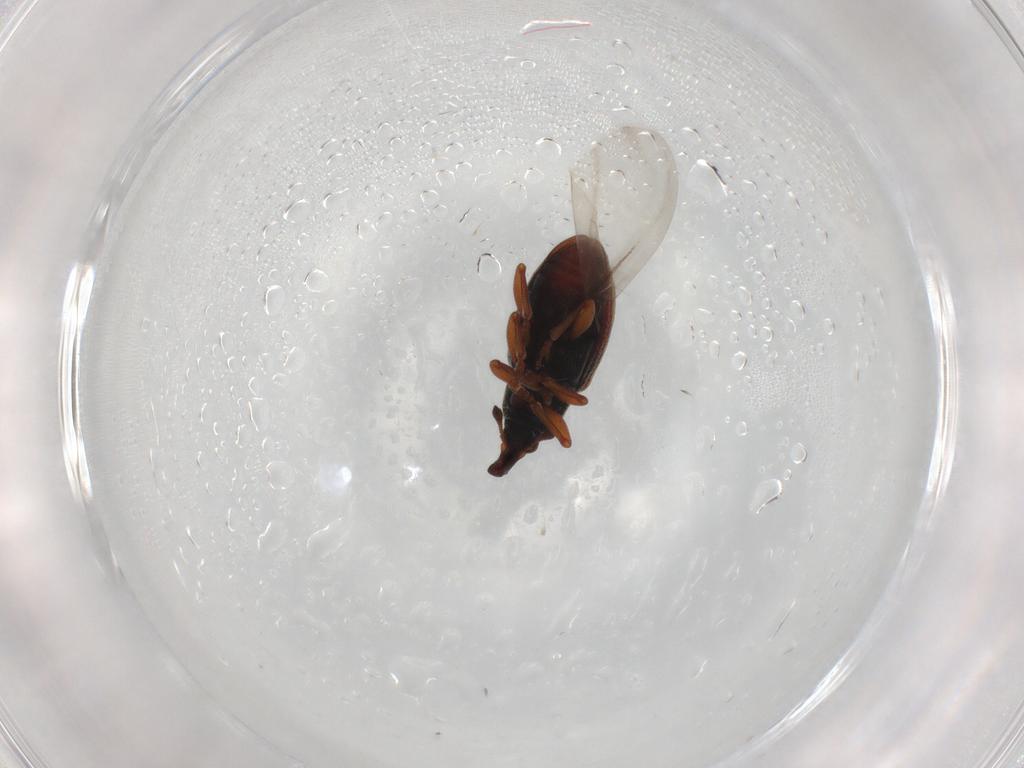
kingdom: Animalia
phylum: Arthropoda
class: Insecta
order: Coleoptera
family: Curculionidae
